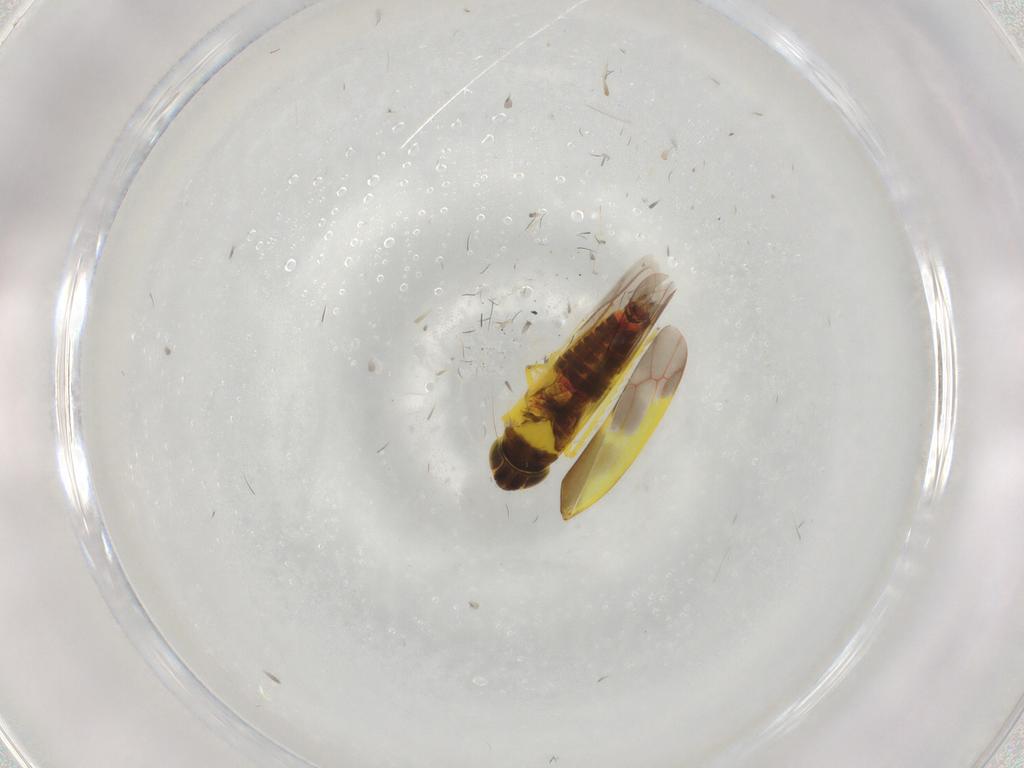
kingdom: Animalia
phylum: Arthropoda
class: Insecta
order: Hemiptera
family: Cicadellidae
